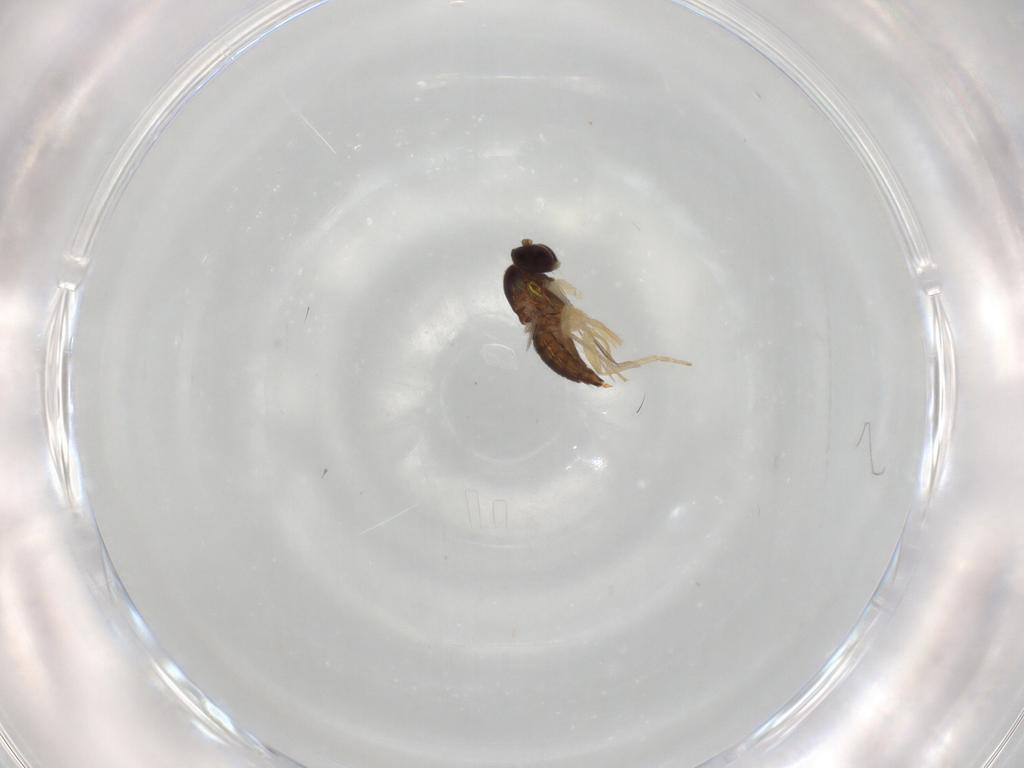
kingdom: Animalia
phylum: Arthropoda
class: Insecta
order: Diptera
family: Dolichopodidae
